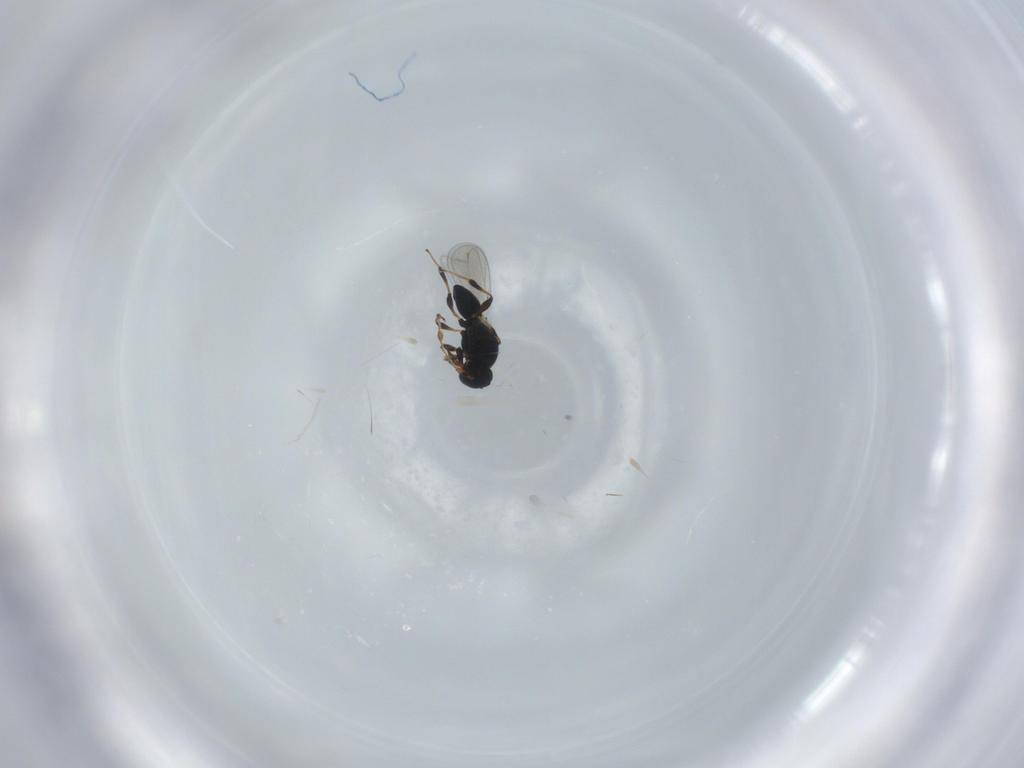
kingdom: Animalia
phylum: Arthropoda
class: Insecta
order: Hymenoptera
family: Platygastridae
